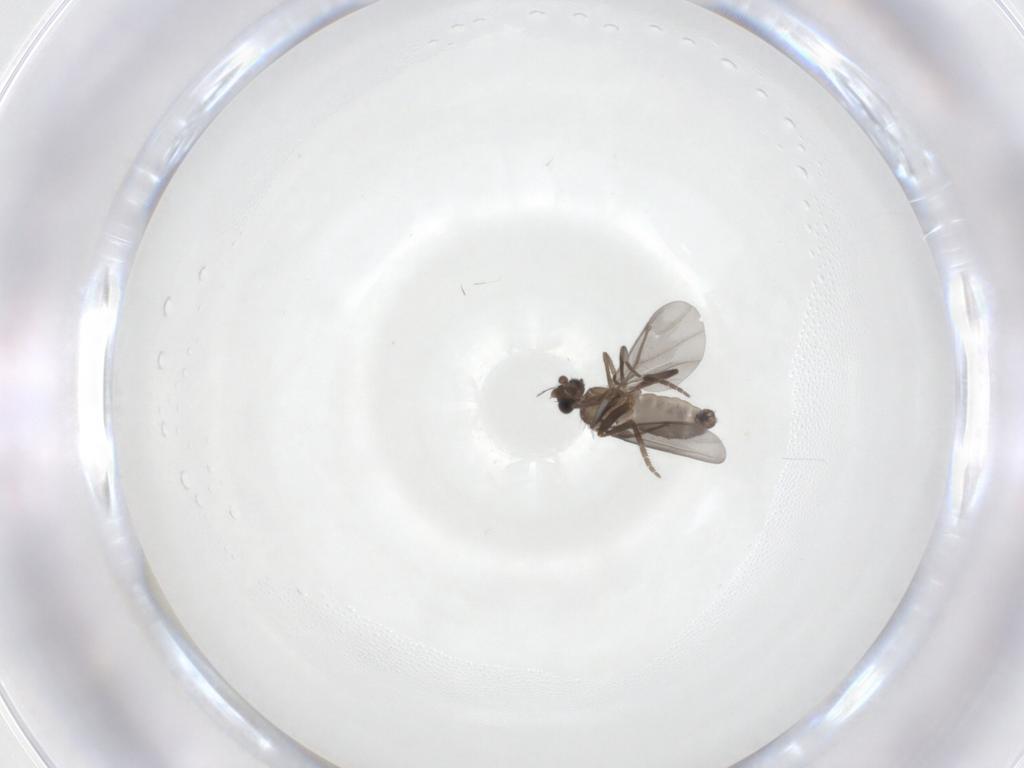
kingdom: Animalia
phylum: Arthropoda
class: Insecta
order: Diptera
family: Phoridae
